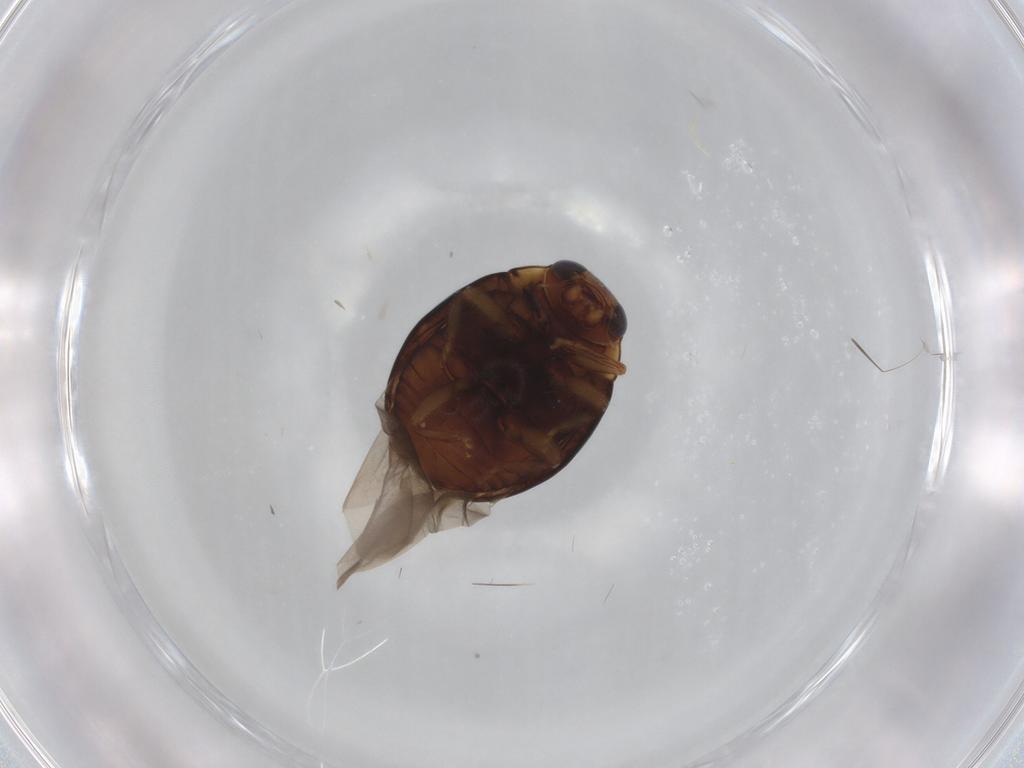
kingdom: Animalia
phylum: Arthropoda
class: Insecta
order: Coleoptera
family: Coccinellidae
